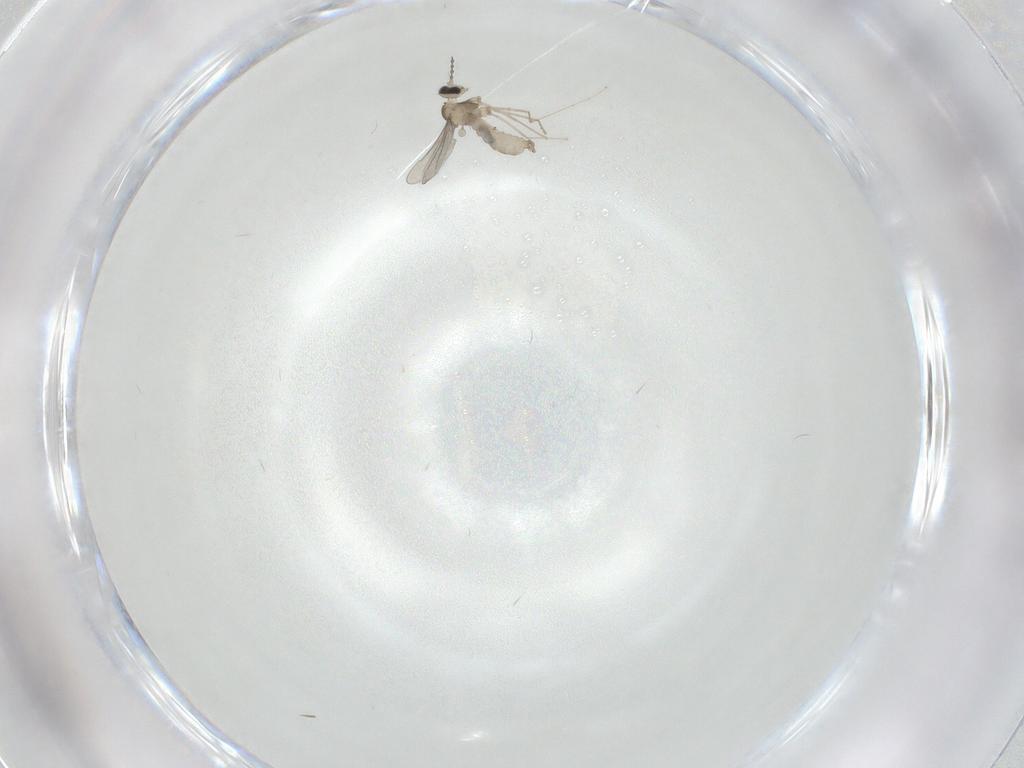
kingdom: Animalia
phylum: Arthropoda
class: Insecta
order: Diptera
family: Cecidomyiidae
